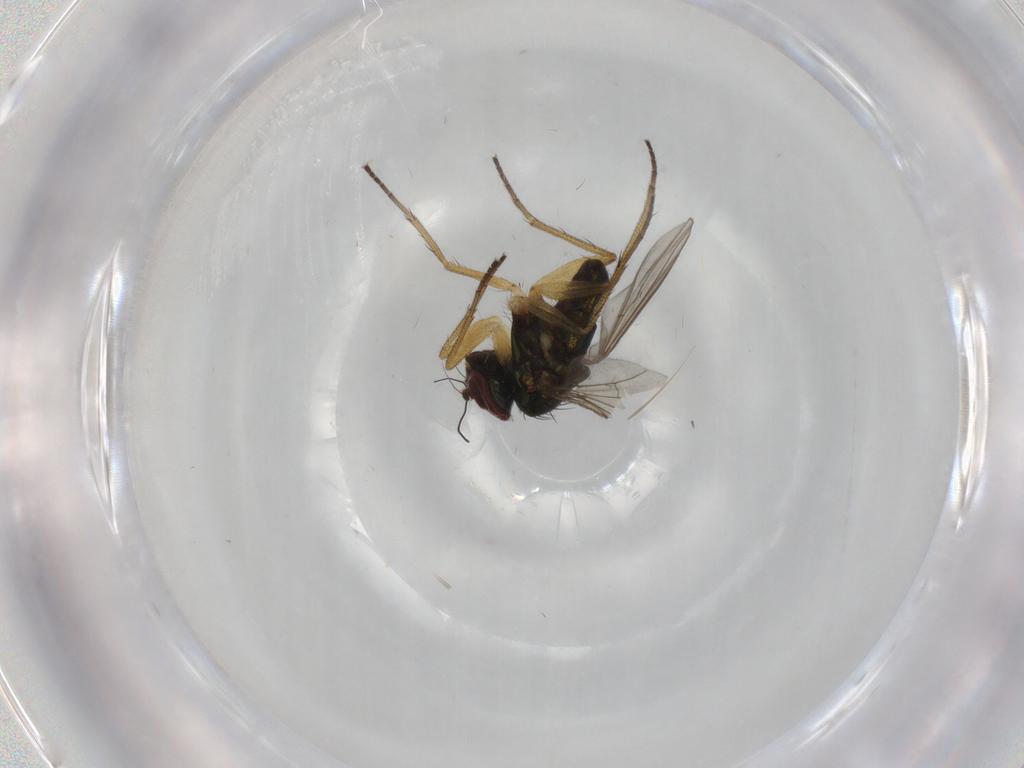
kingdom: Animalia
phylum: Arthropoda
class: Insecta
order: Diptera
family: Dolichopodidae
